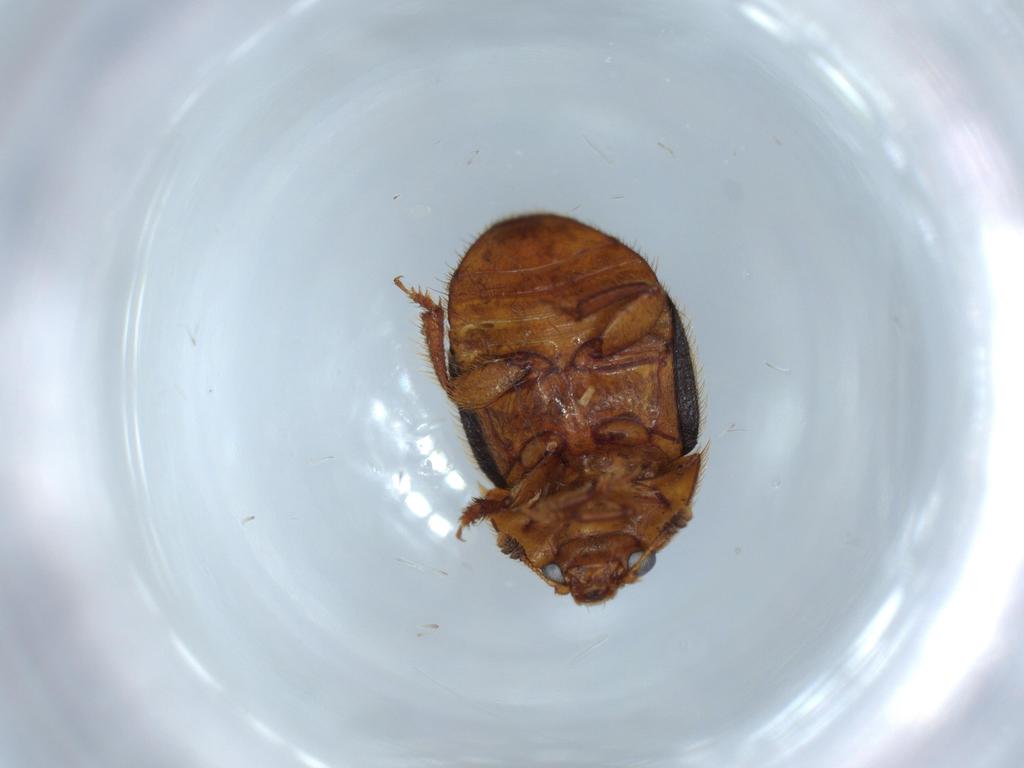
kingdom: Animalia
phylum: Arthropoda
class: Insecta
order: Coleoptera
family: Nitidulidae
